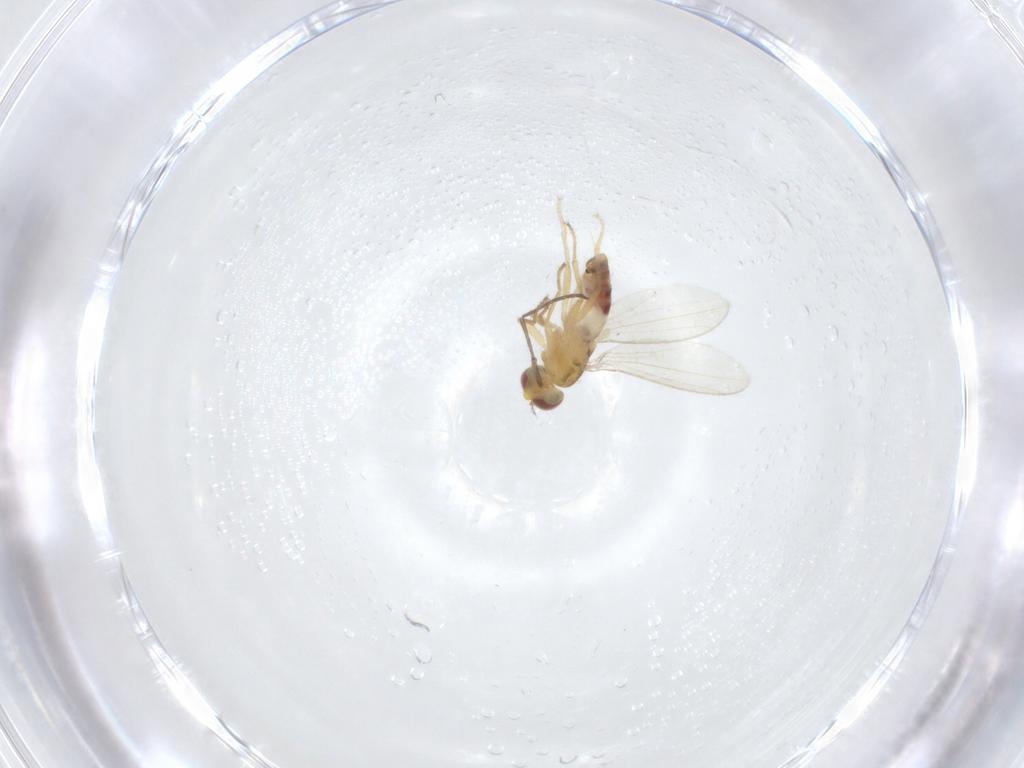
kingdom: Animalia
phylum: Arthropoda
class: Insecta
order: Diptera
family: Periscelididae
